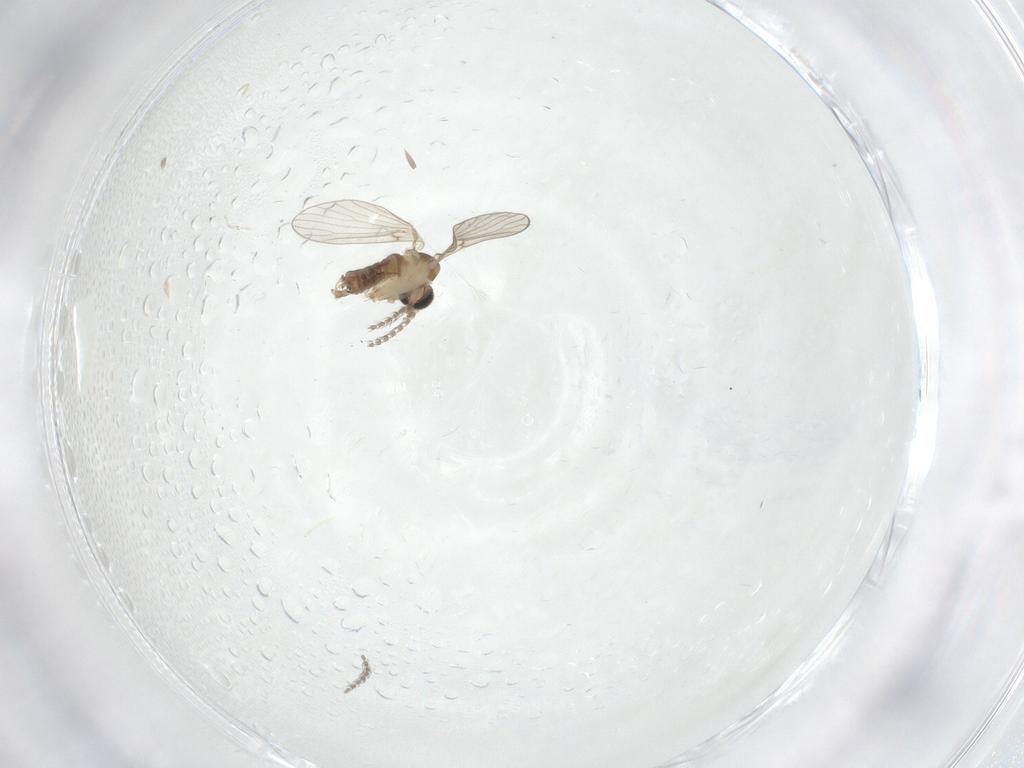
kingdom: Animalia
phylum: Arthropoda
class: Insecta
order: Diptera
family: Psychodidae
